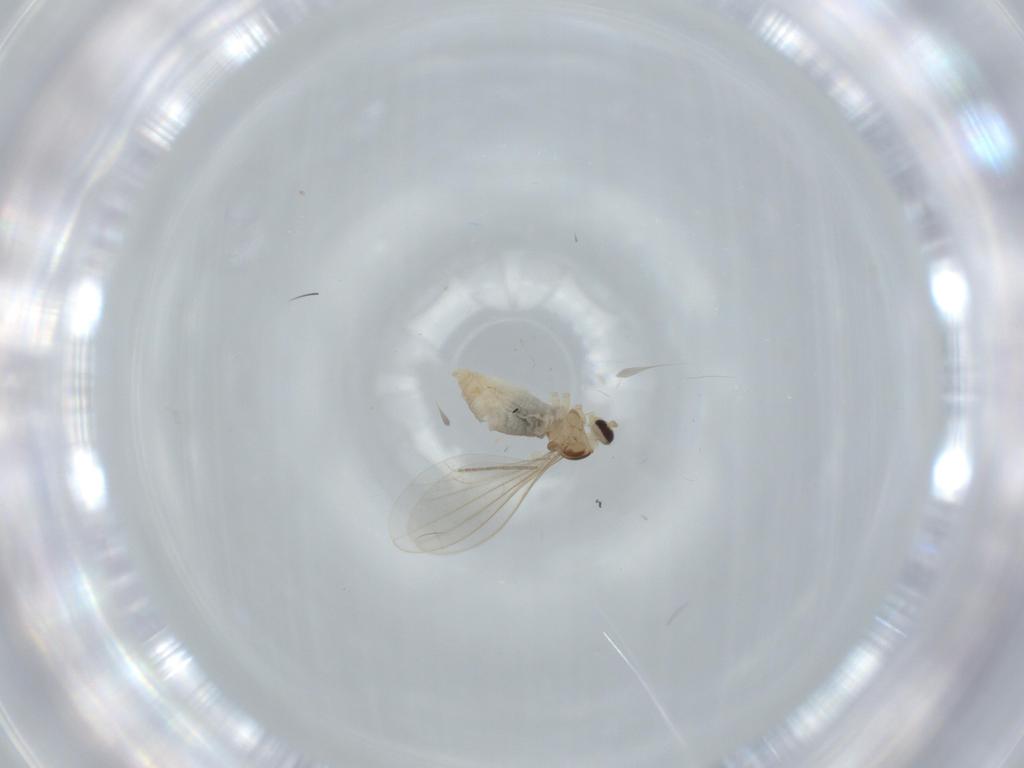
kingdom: Animalia
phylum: Arthropoda
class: Insecta
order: Diptera
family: Cecidomyiidae
